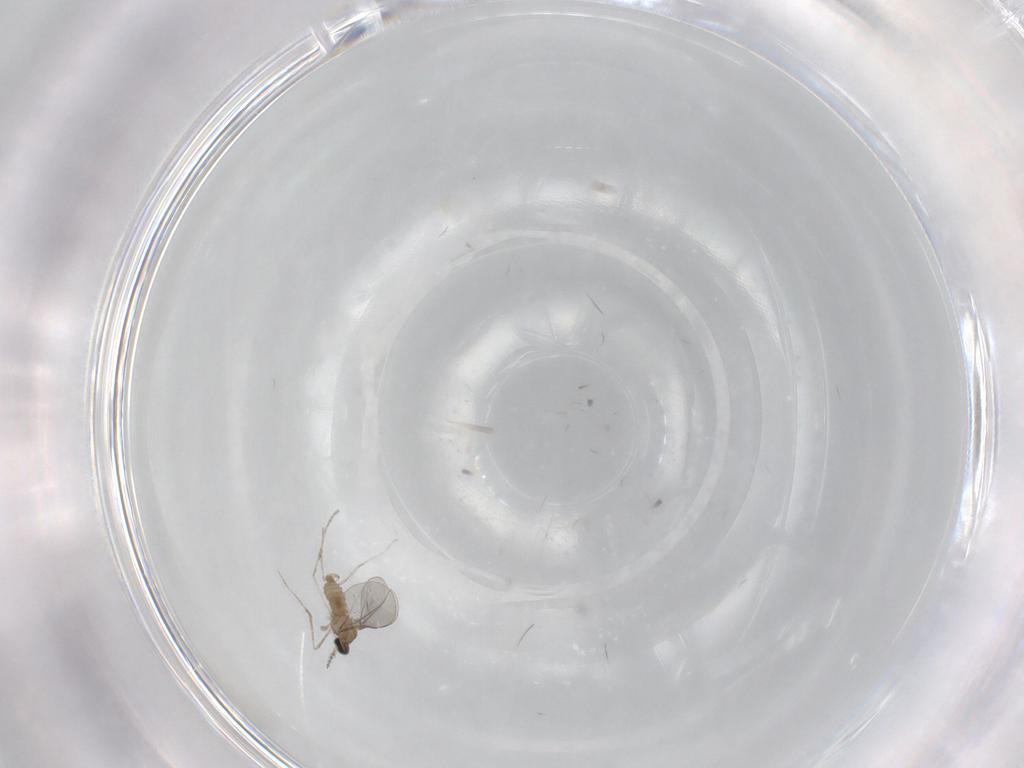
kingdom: Animalia
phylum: Arthropoda
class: Insecta
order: Diptera
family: Cecidomyiidae
